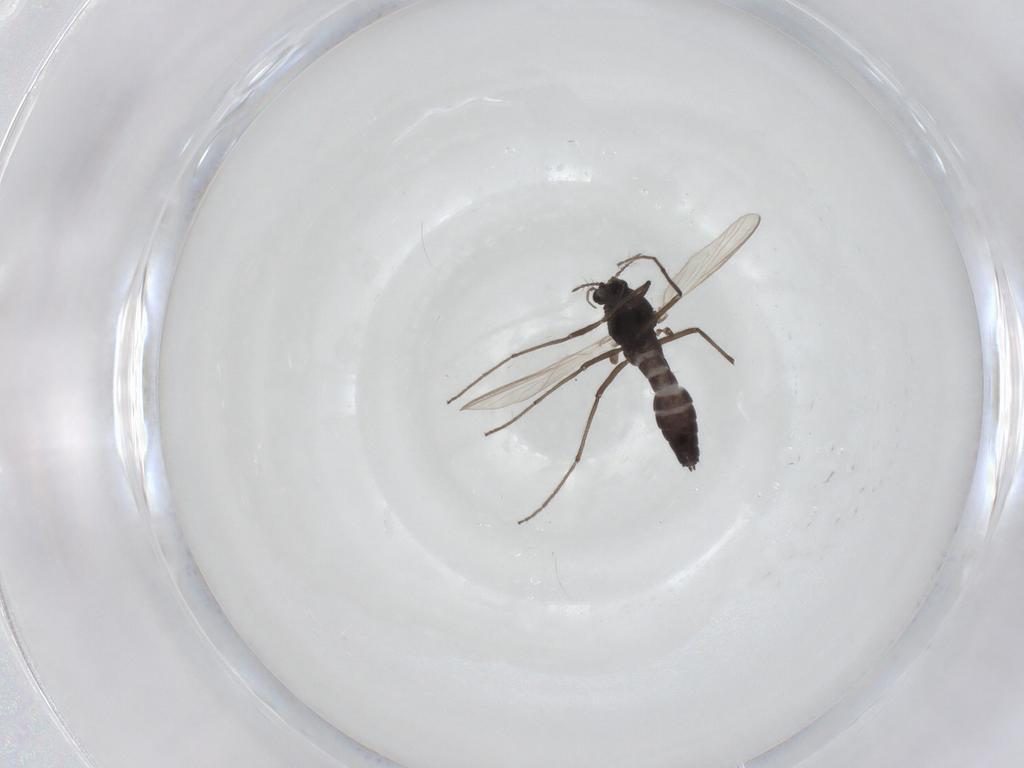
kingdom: Animalia
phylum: Arthropoda
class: Insecta
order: Diptera
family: Chironomidae
